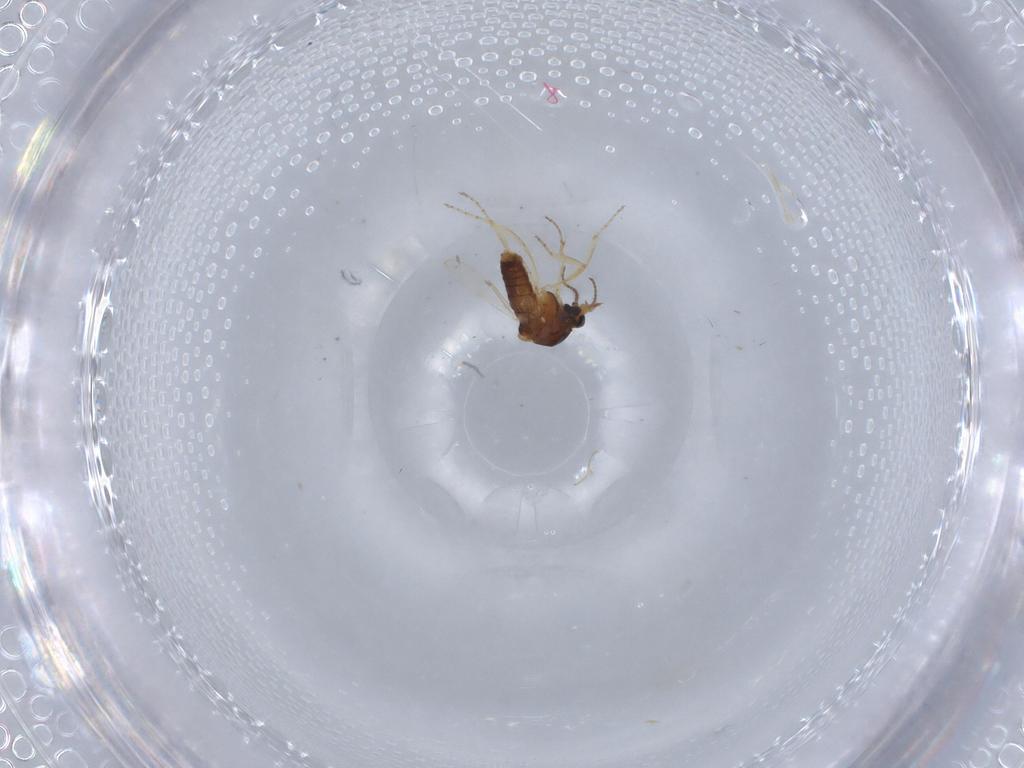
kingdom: Animalia
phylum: Arthropoda
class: Insecta
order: Diptera
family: Ceratopogonidae
